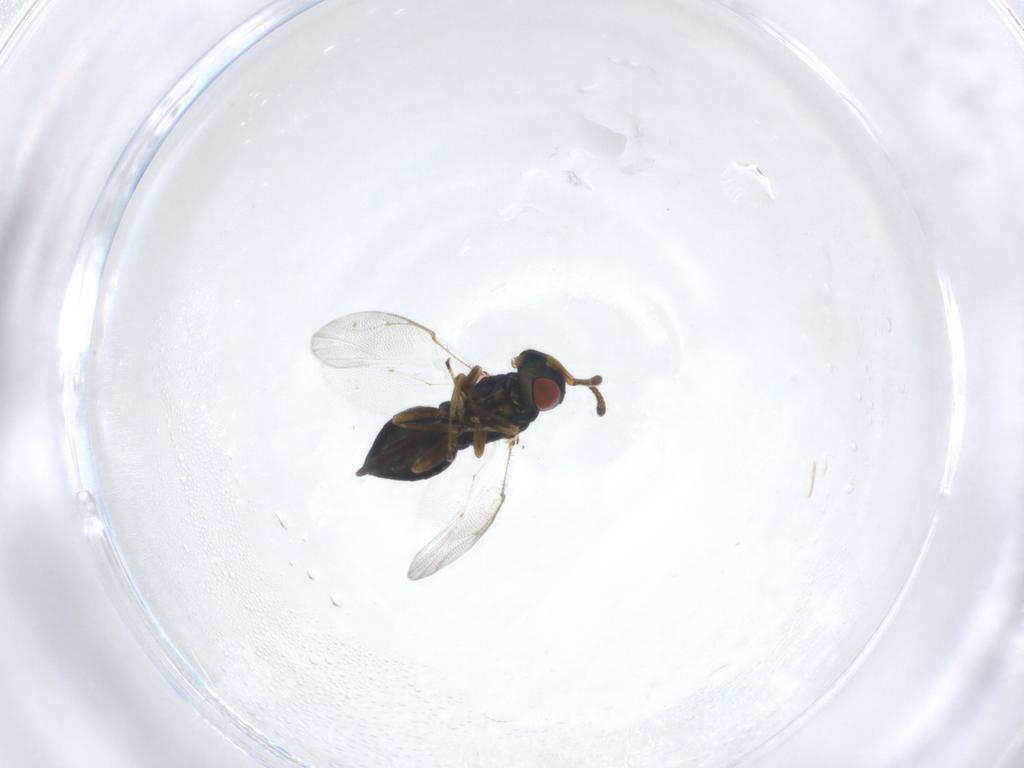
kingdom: Animalia
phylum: Arthropoda
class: Insecta
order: Hymenoptera
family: Pteromalidae
